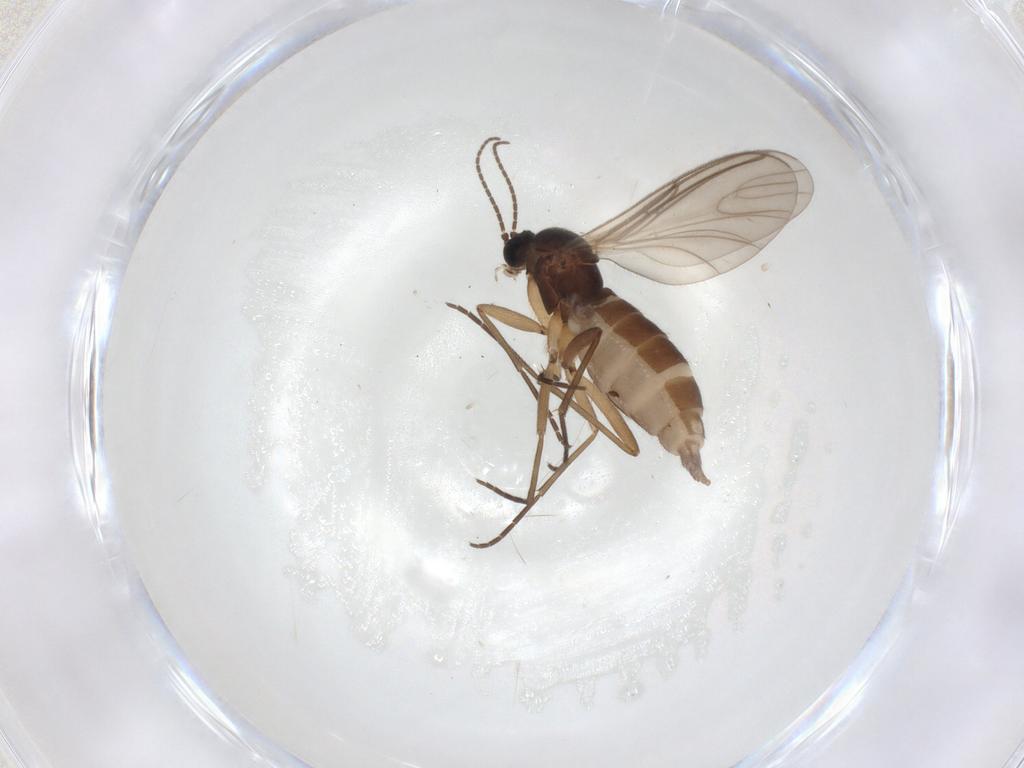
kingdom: Animalia
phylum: Arthropoda
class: Insecta
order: Diptera
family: Sciaridae
